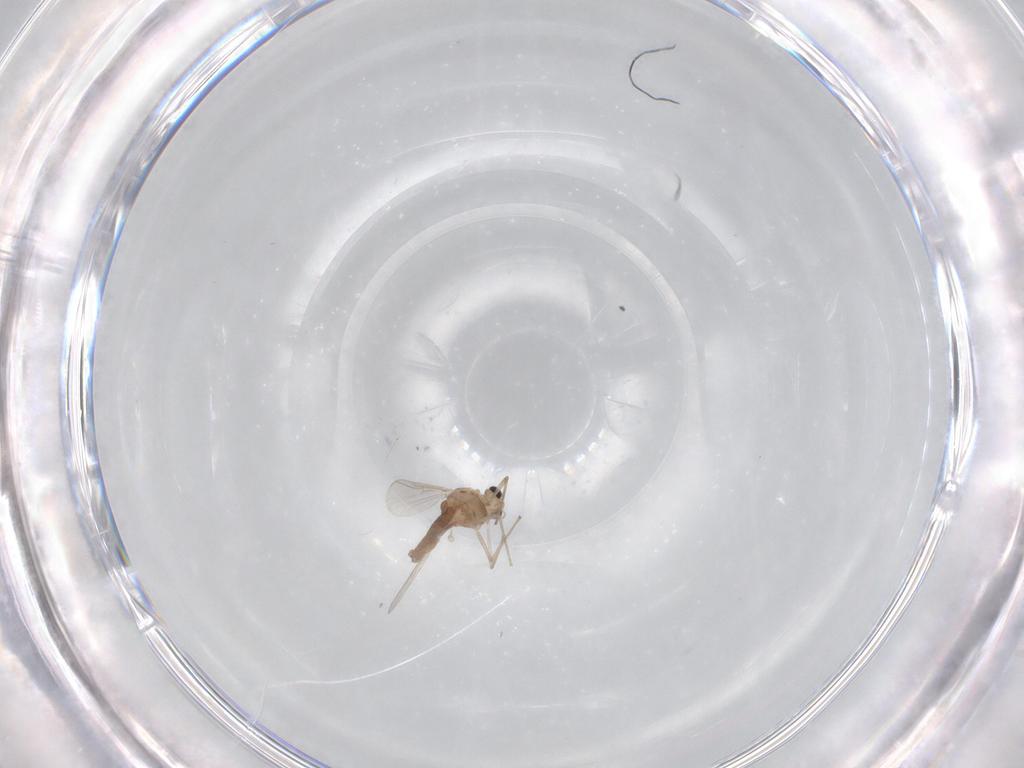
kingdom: Animalia
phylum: Arthropoda
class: Insecta
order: Diptera
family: Chironomidae
